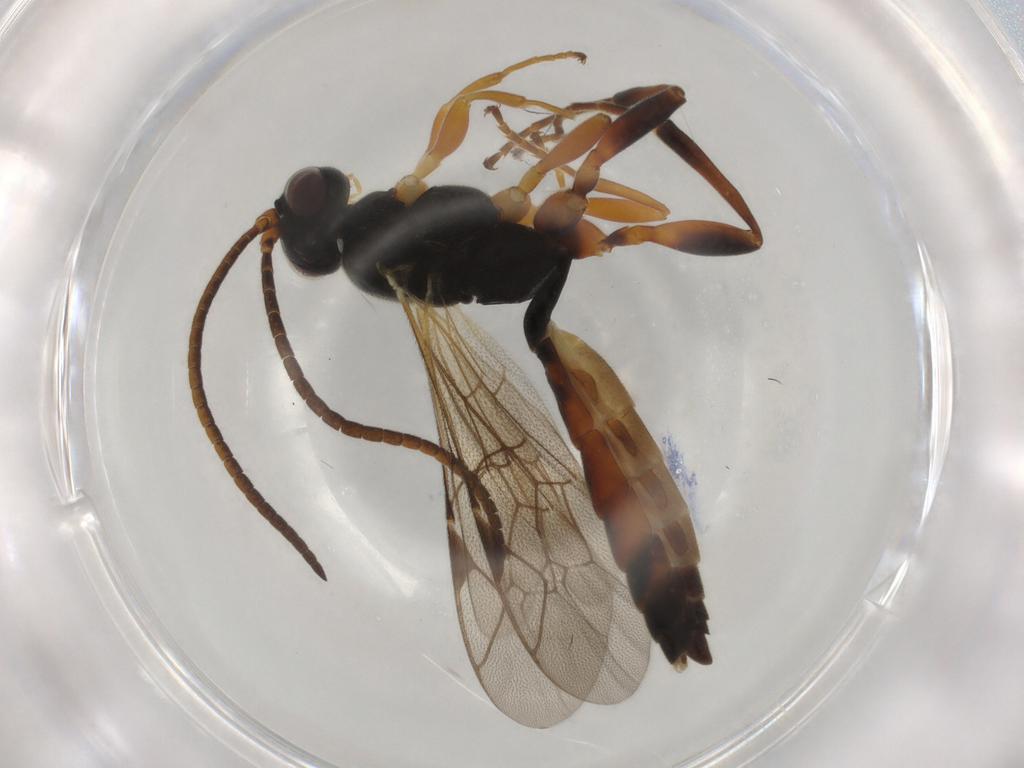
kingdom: Animalia
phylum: Arthropoda
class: Insecta
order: Hymenoptera
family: Ichneumonidae
